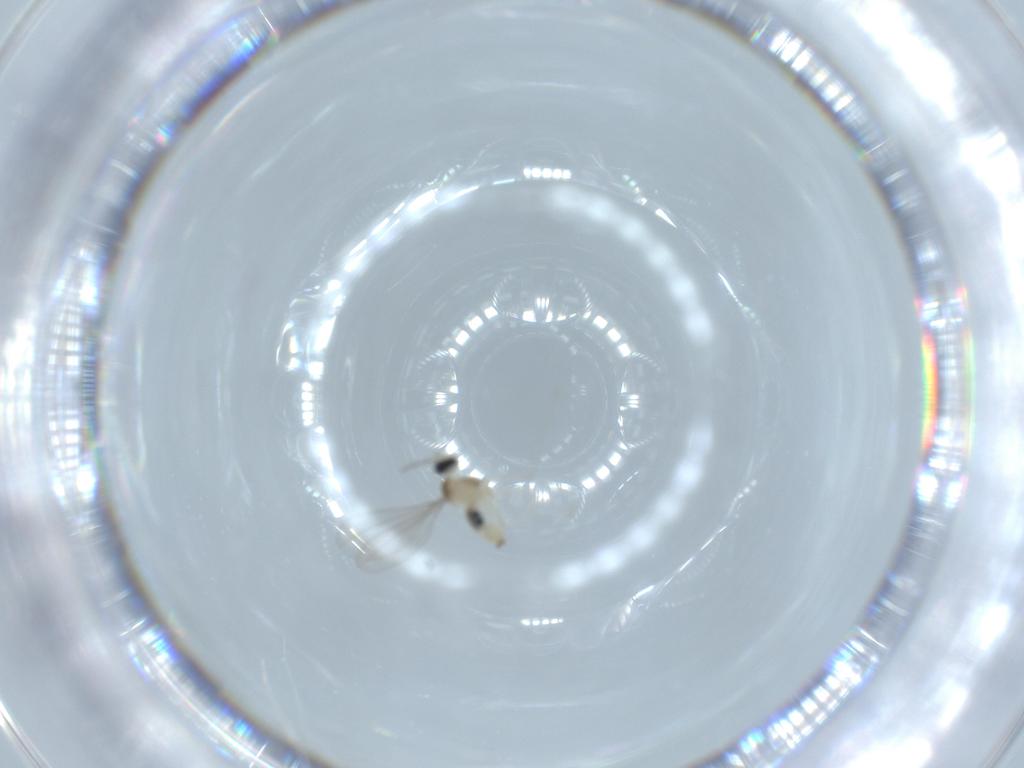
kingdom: Animalia
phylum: Arthropoda
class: Insecta
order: Diptera
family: Cecidomyiidae
